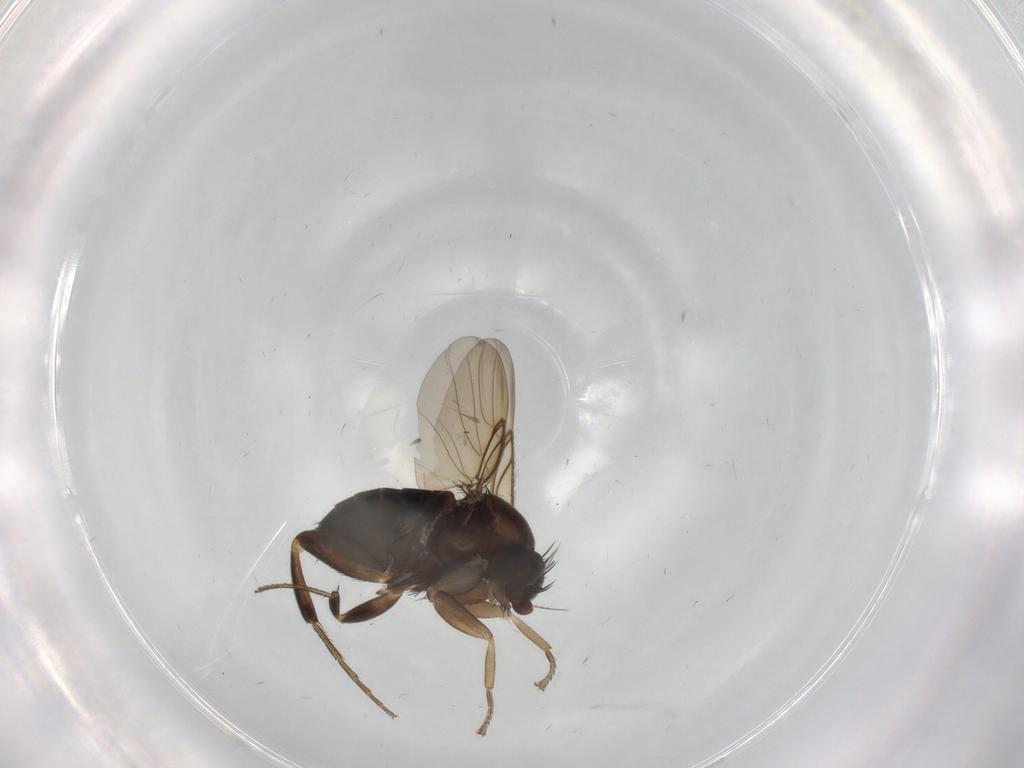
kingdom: Animalia
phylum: Arthropoda
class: Insecta
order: Diptera
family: Cecidomyiidae
